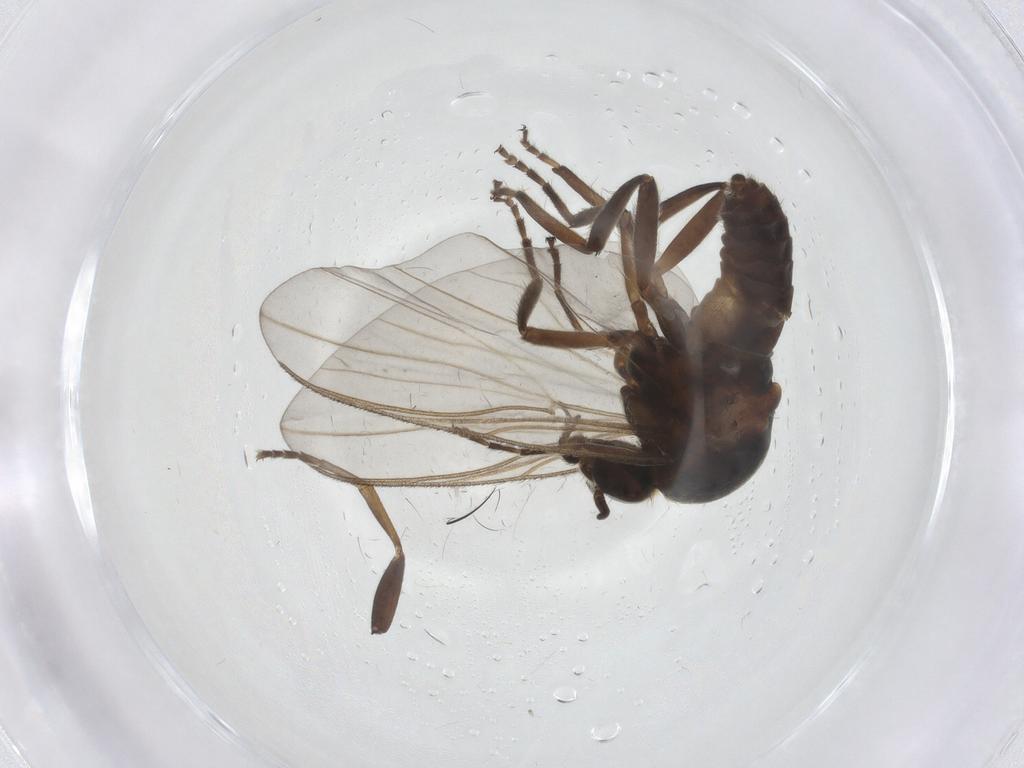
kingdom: Animalia
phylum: Arthropoda
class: Insecta
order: Diptera
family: Simuliidae
